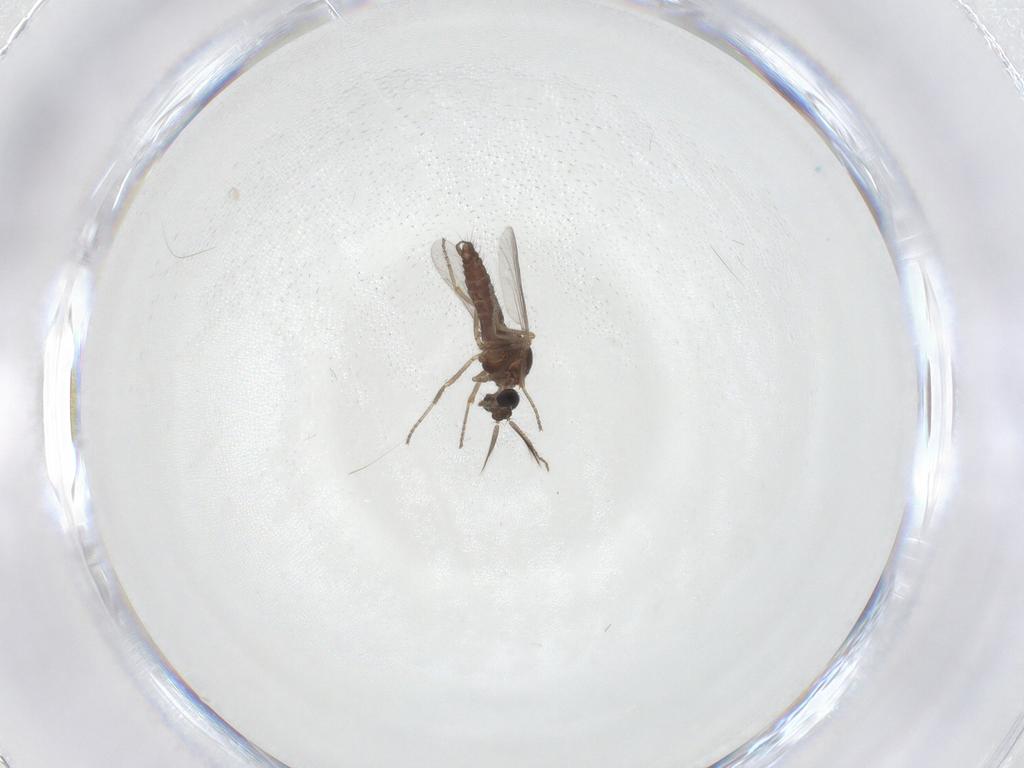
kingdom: Animalia
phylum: Arthropoda
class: Insecta
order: Diptera
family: Ceratopogonidae
